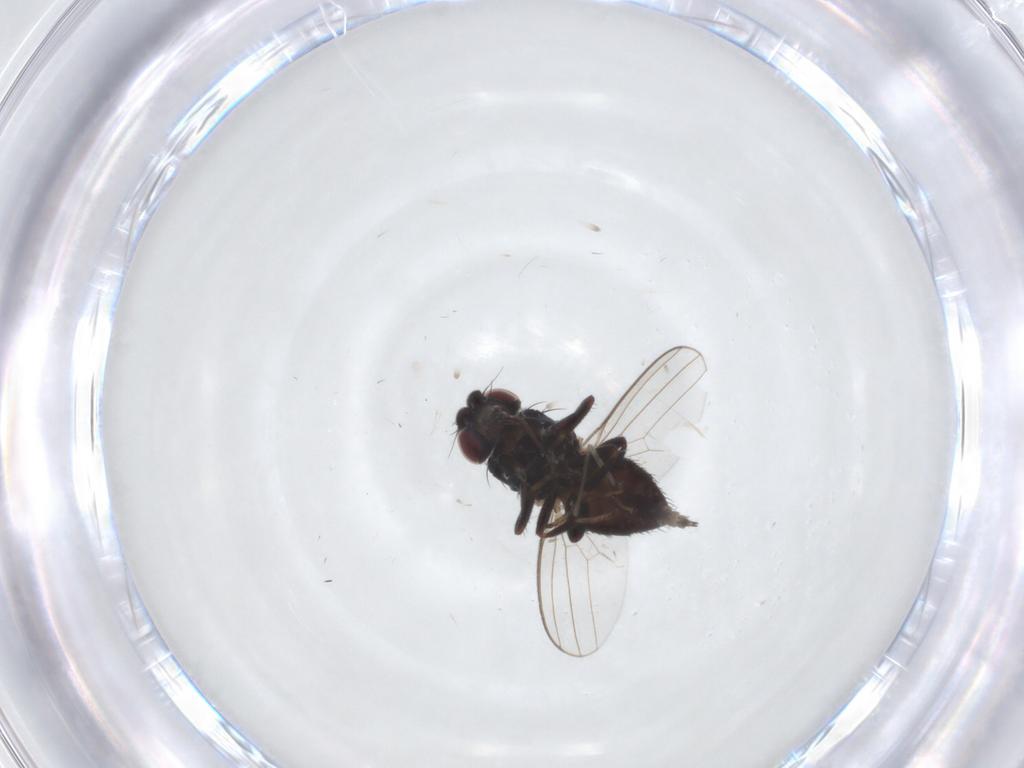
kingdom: Animalia
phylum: Arthropoda
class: Insecta
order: Diptera
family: Milichiidae
